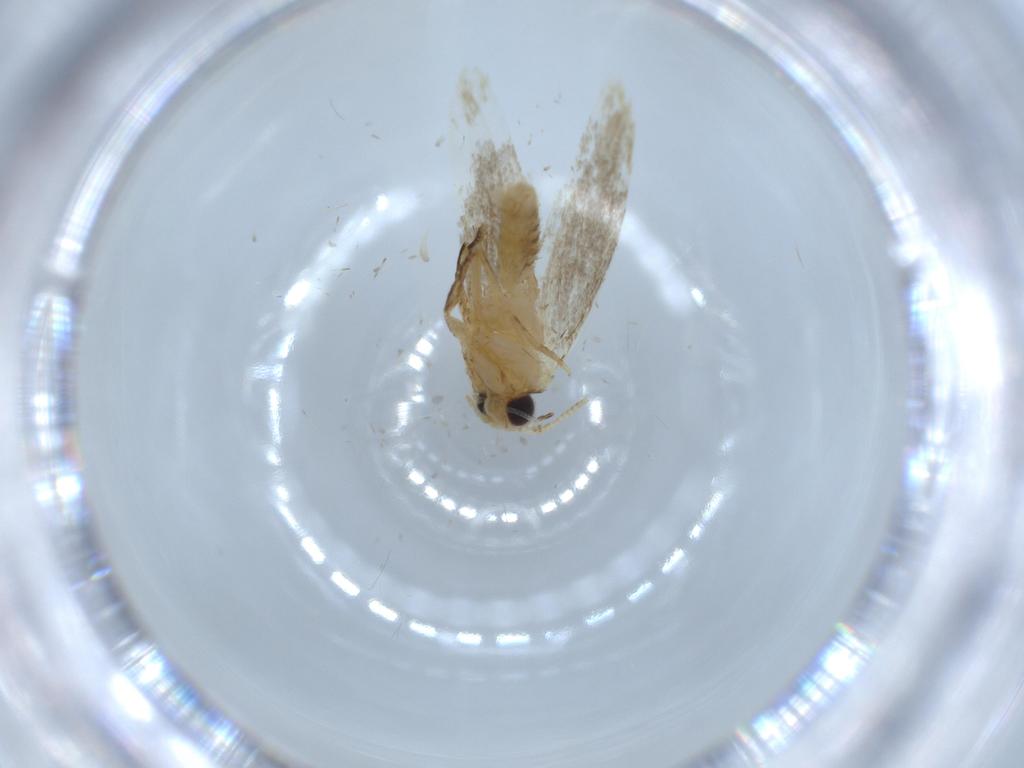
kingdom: Animalia
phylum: Arthropoda
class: Insecta
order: Lepidoptera
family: Tineidae
